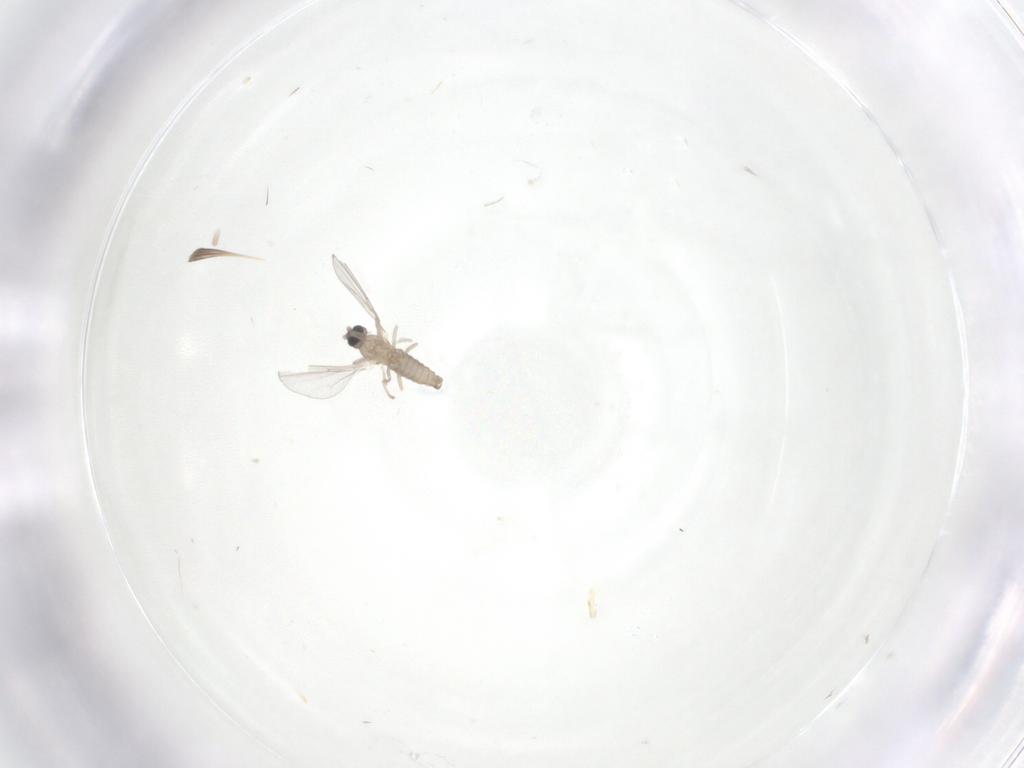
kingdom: Animalia
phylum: Arthropoda
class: Insecta
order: Diptera
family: Cecidomyiidae
